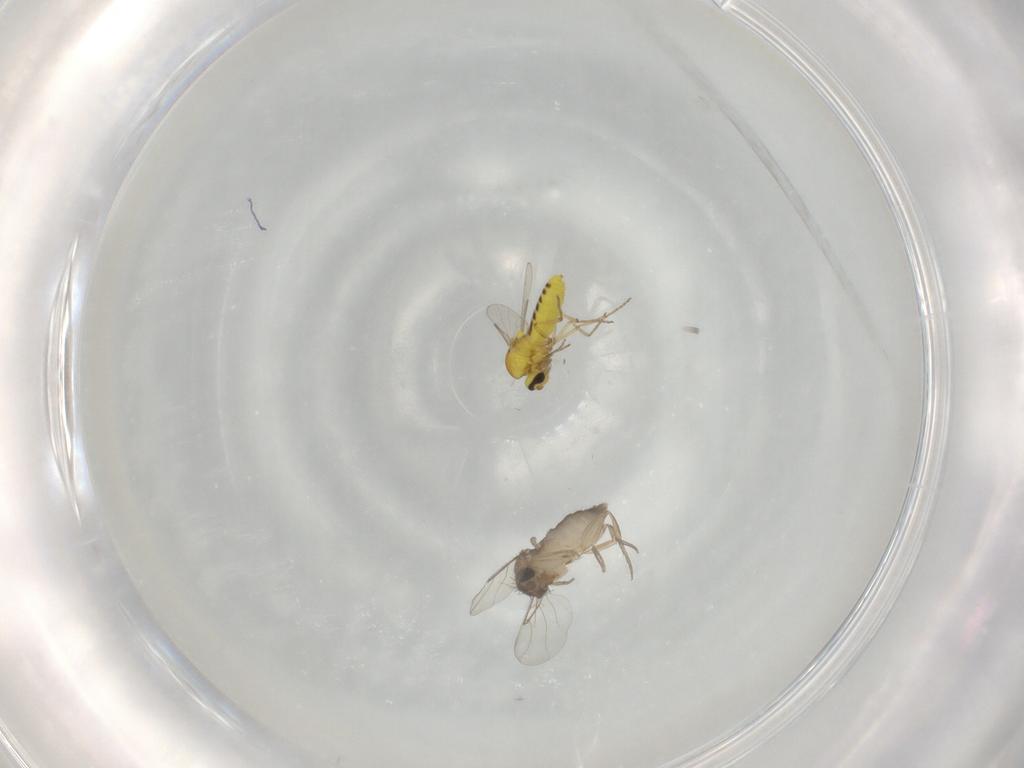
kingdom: Animalia
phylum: Arthropoda
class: Insecta
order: Diptera
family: Ceratopogonidae
